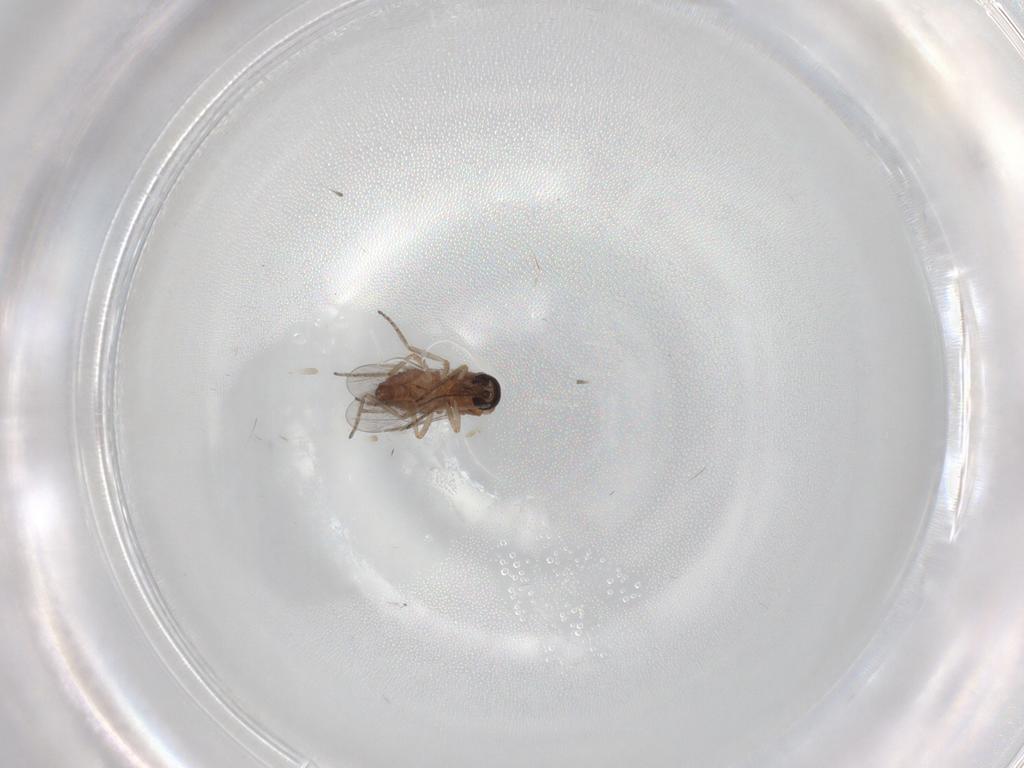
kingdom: Animalia
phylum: Arthropoda
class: Insecta
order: Diptera
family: Ceratopogonidae
